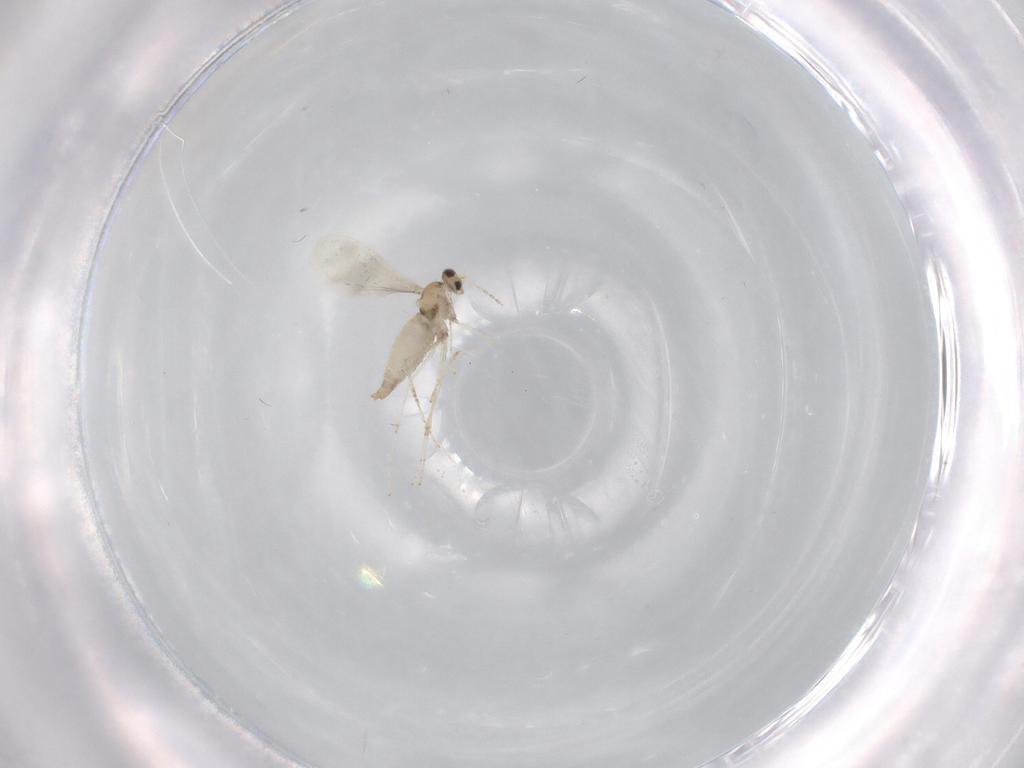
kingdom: Animalia
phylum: Arthropoda
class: Insecta
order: Diptera
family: Cecidomyiidae
